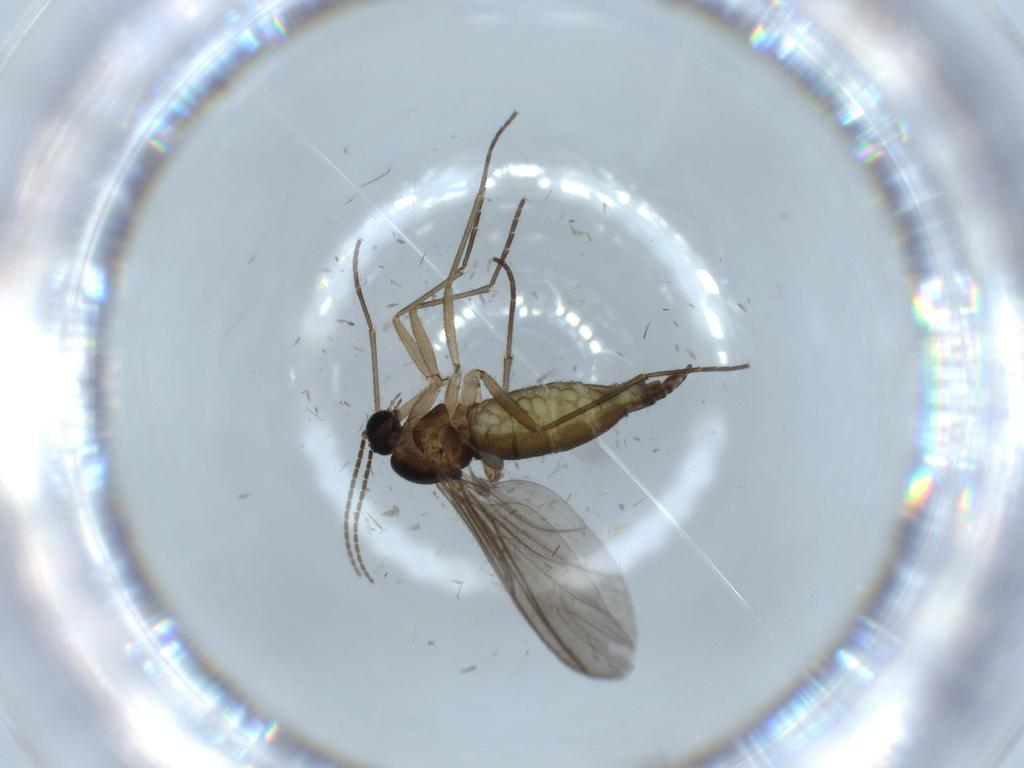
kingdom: Animalia
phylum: Arthropoda
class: Insecta
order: Diptera
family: Sciaridae
